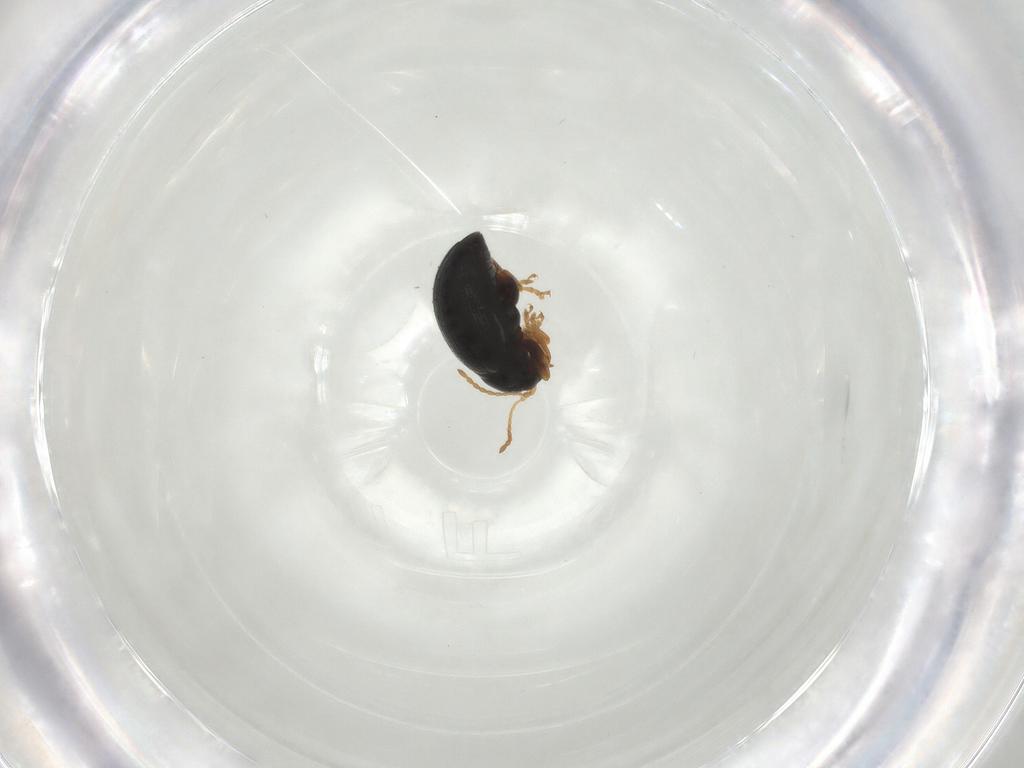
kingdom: Animalia
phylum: Arthropoda
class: Insecta
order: Coleoptera
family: Chrysomelidae
